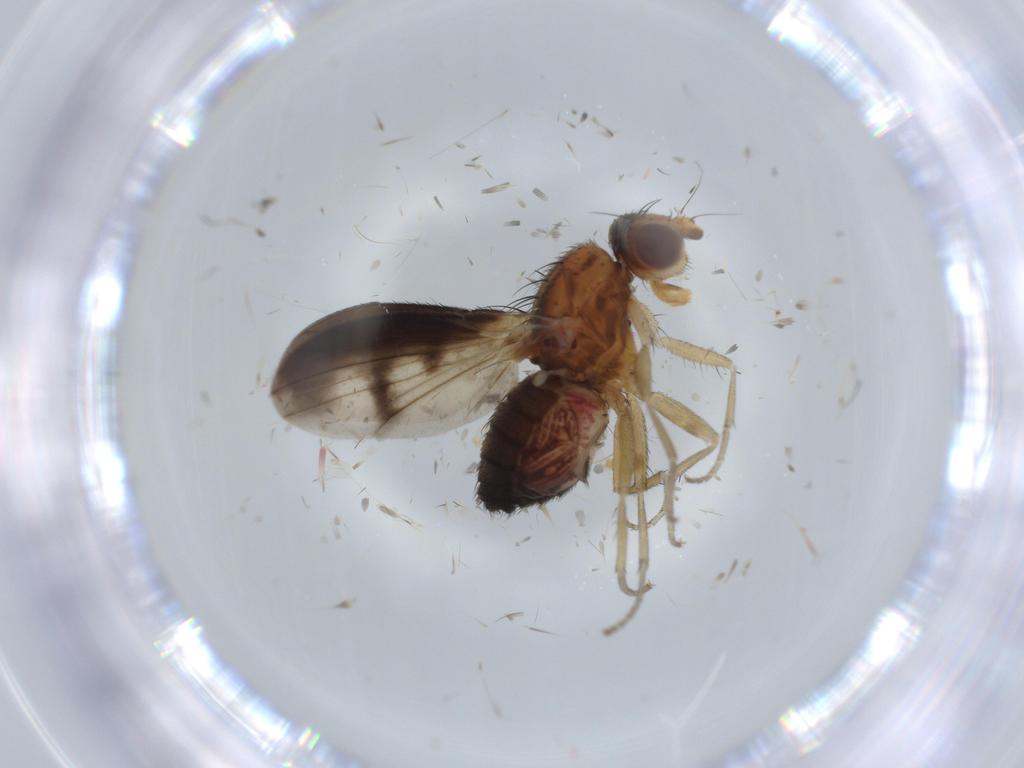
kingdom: Animalia
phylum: Arthropoda
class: Insecta
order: Diptera
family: Heleomyzidae
